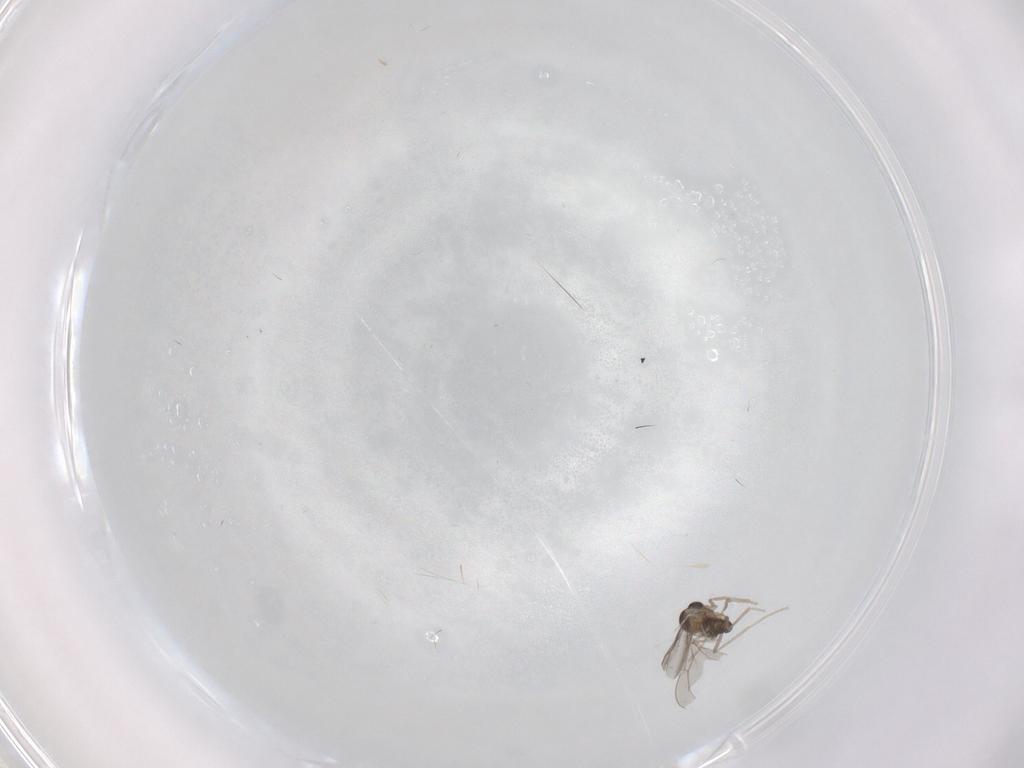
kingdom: Animalia
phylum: Arthropoda
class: Insecta
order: Diptera
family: Cecidomyiidae
